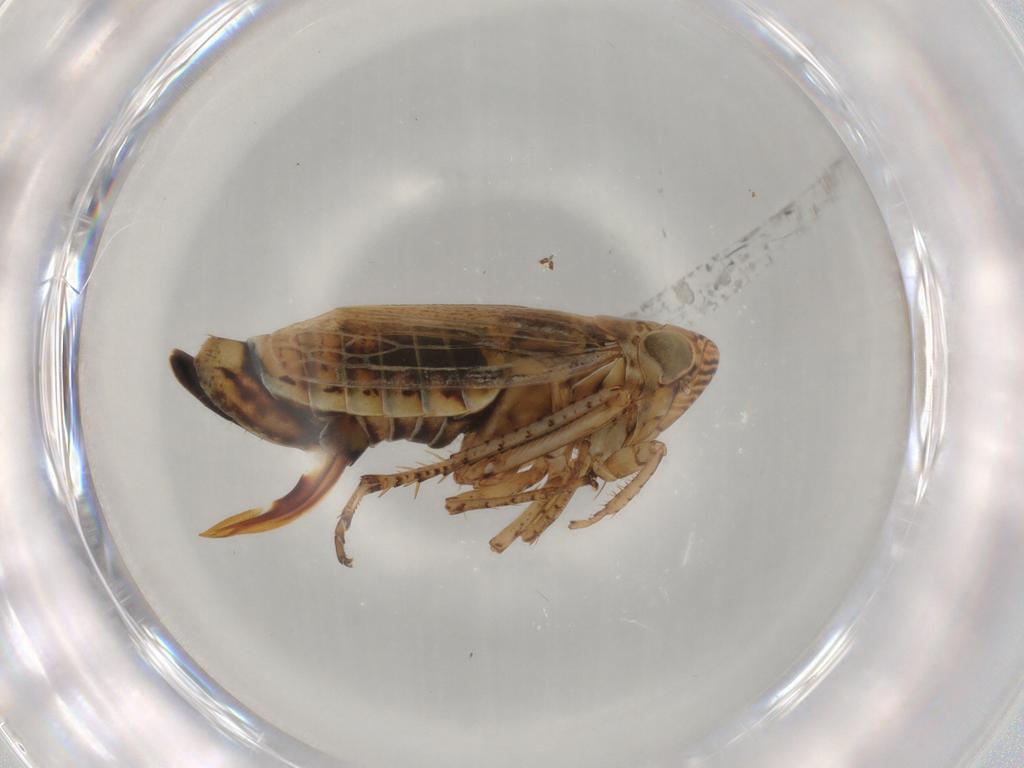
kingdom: Animalia
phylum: Arthropoda
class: Insecta
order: Hemiptera
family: Cicadellidae
